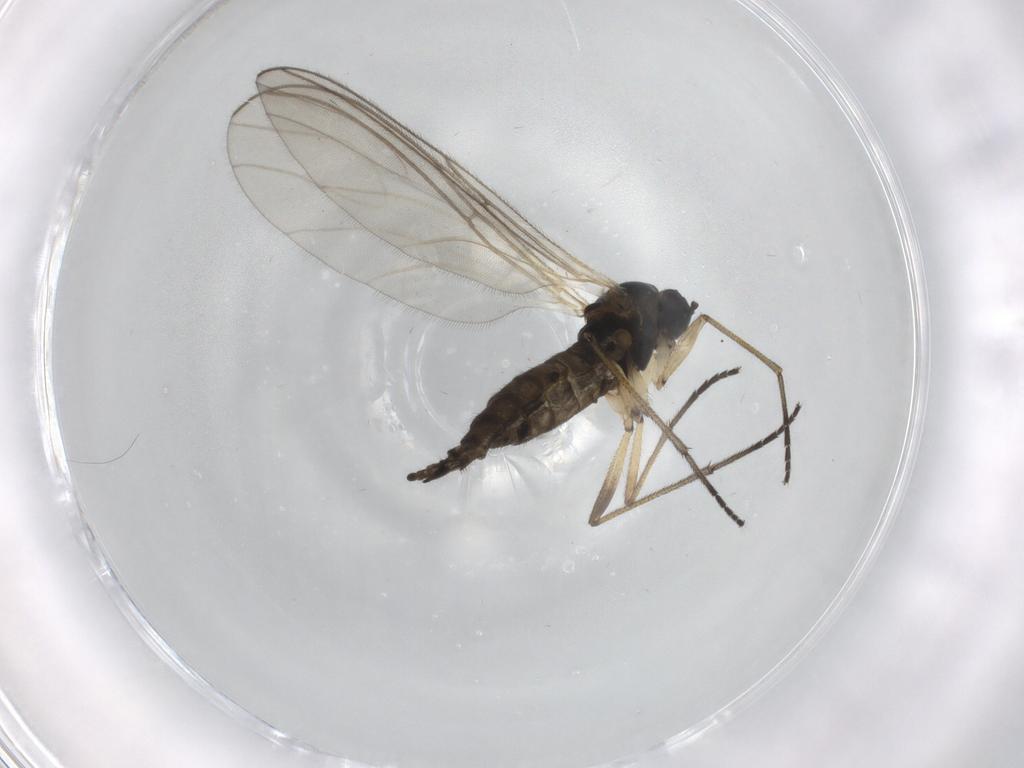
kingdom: Animalia
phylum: Arthropoda
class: Insecta
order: Diptera
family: Sciaridae
